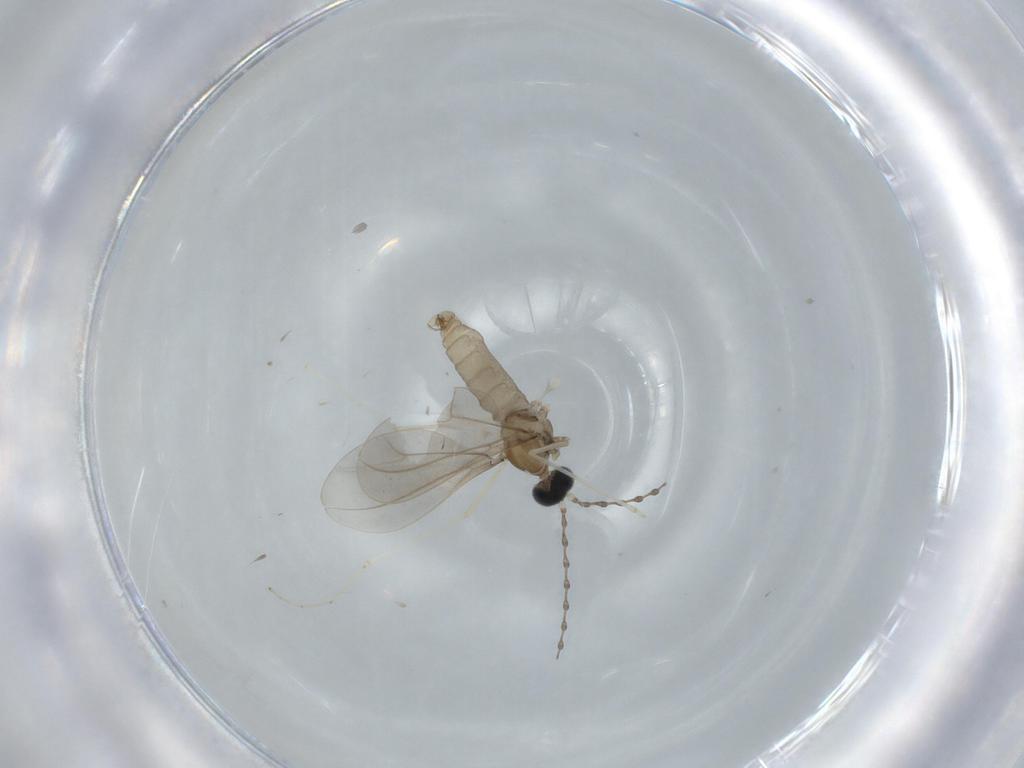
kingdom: Animalia
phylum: Arthropoda
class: Insecta
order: Diptera
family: Cecidomyiidae
